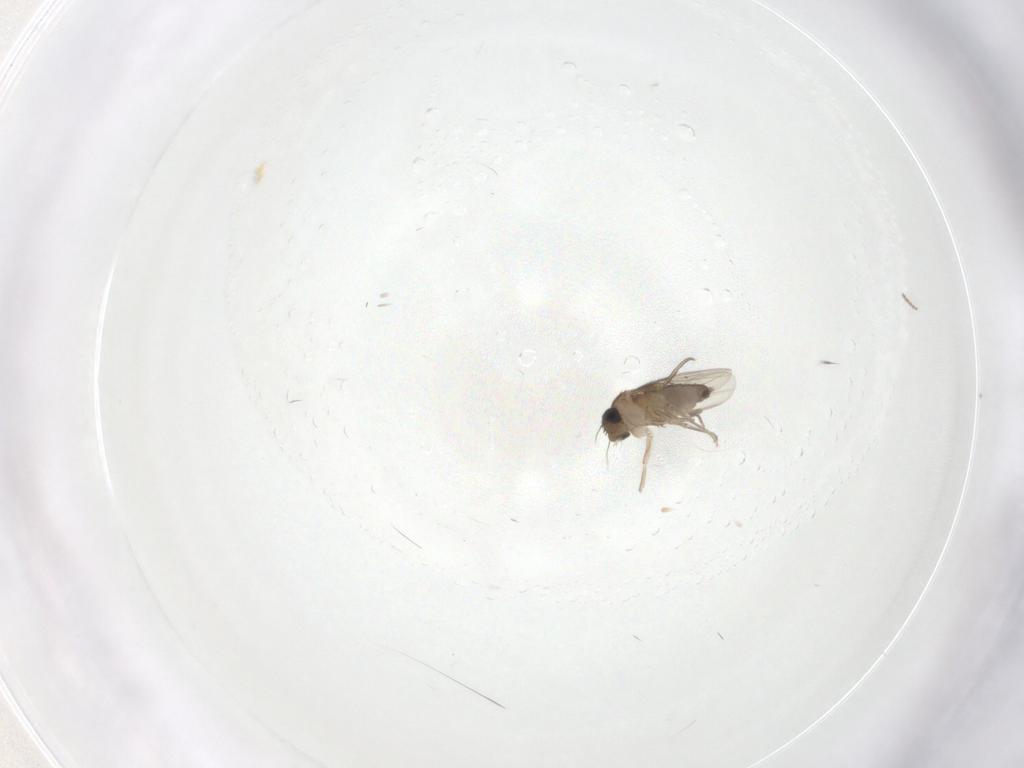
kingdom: Animalia
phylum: Arthropoda
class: Insecta
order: Diptera
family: Phoridae
